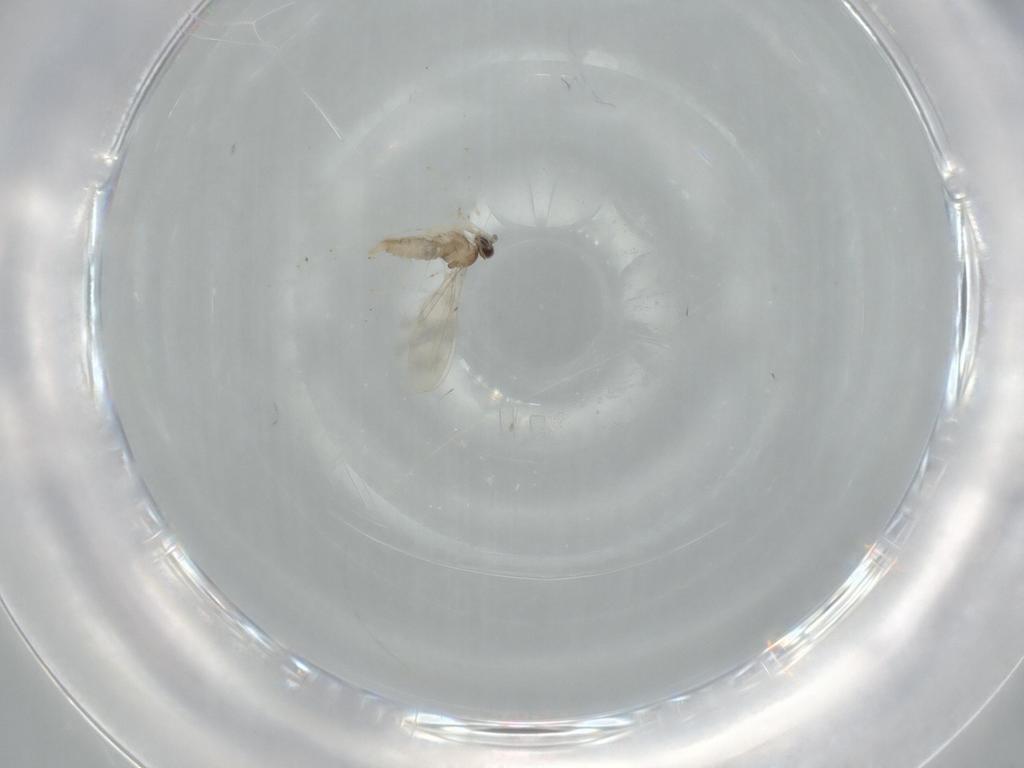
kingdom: Animalia
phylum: Arthropoda
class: Insecta
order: Diptera
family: Cecidomyiidae
